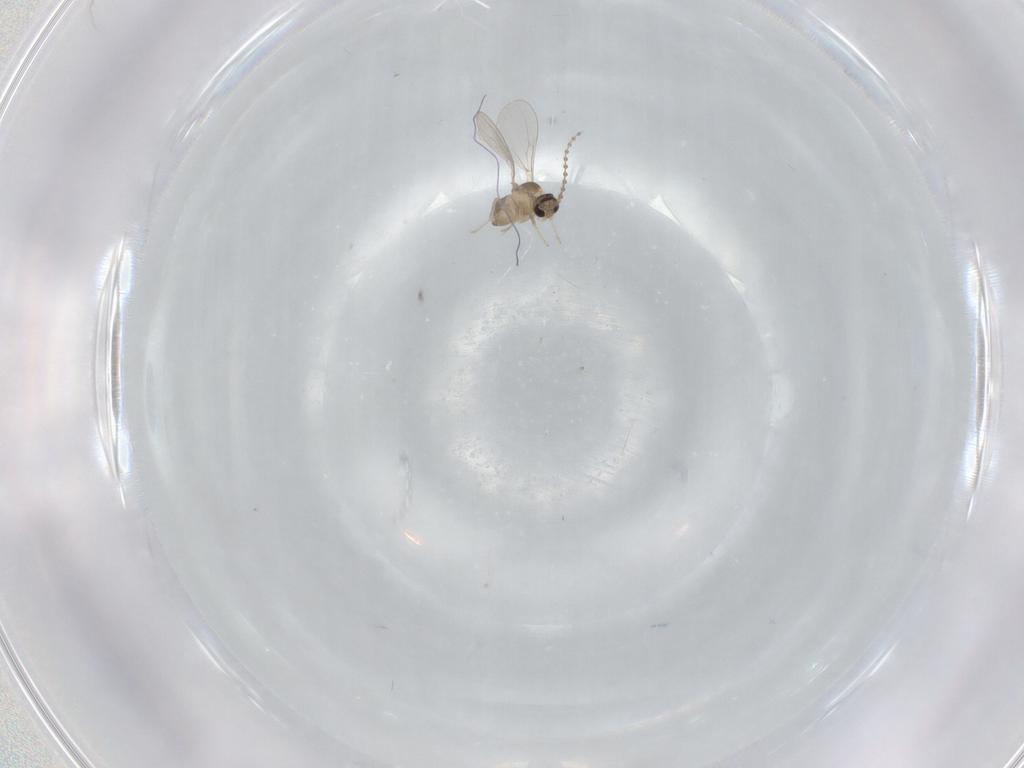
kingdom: Animalia
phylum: Arthropoda
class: Insecta
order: Diptera
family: Cecidomyiidae
